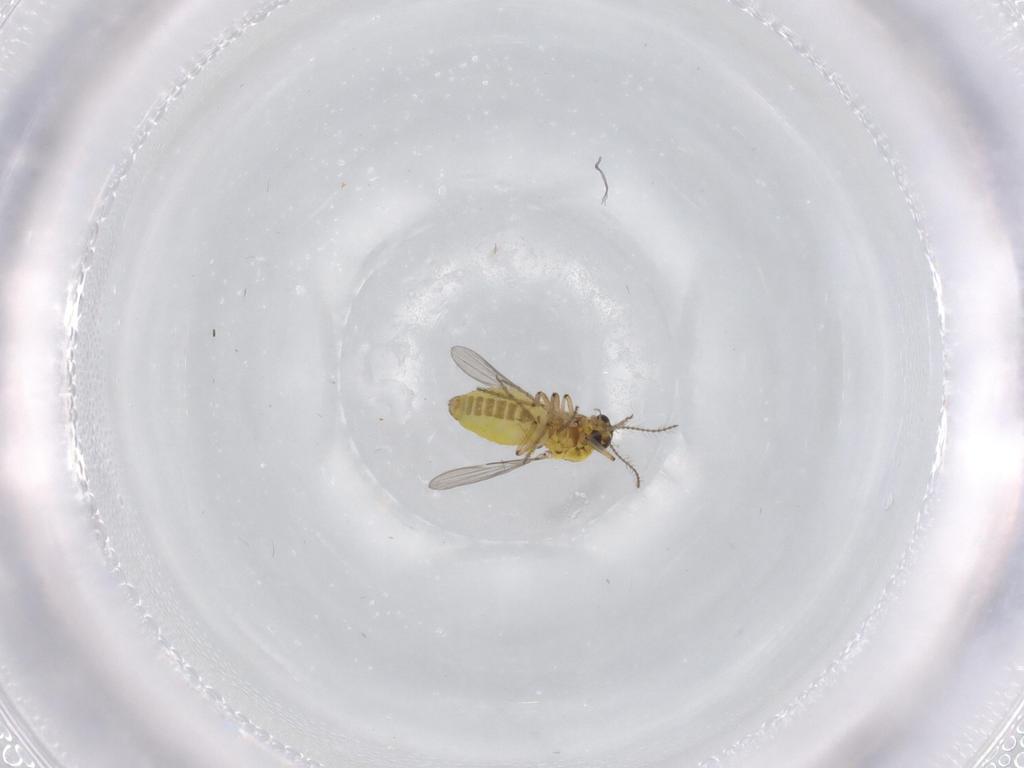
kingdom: Animalia
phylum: Arthropoda
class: Insecta
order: Diptera
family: Ceratopogonidae
